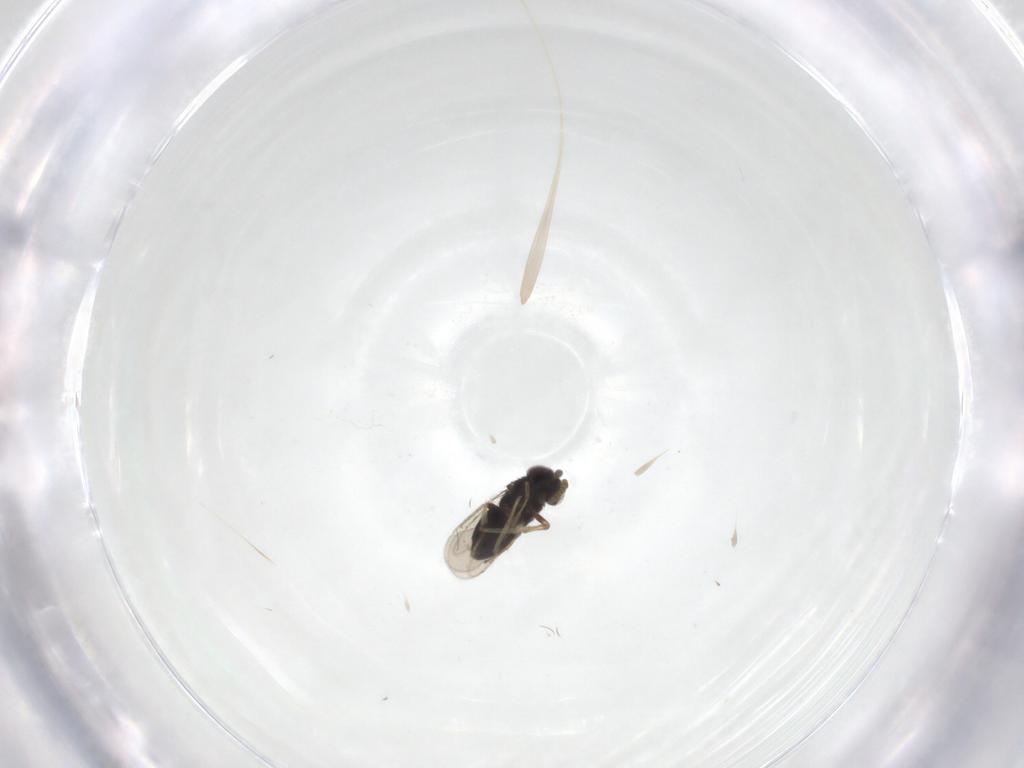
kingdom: Animalia
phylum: Arthropoda
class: Insecta
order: Hymenoptera
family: Aphelinidae
